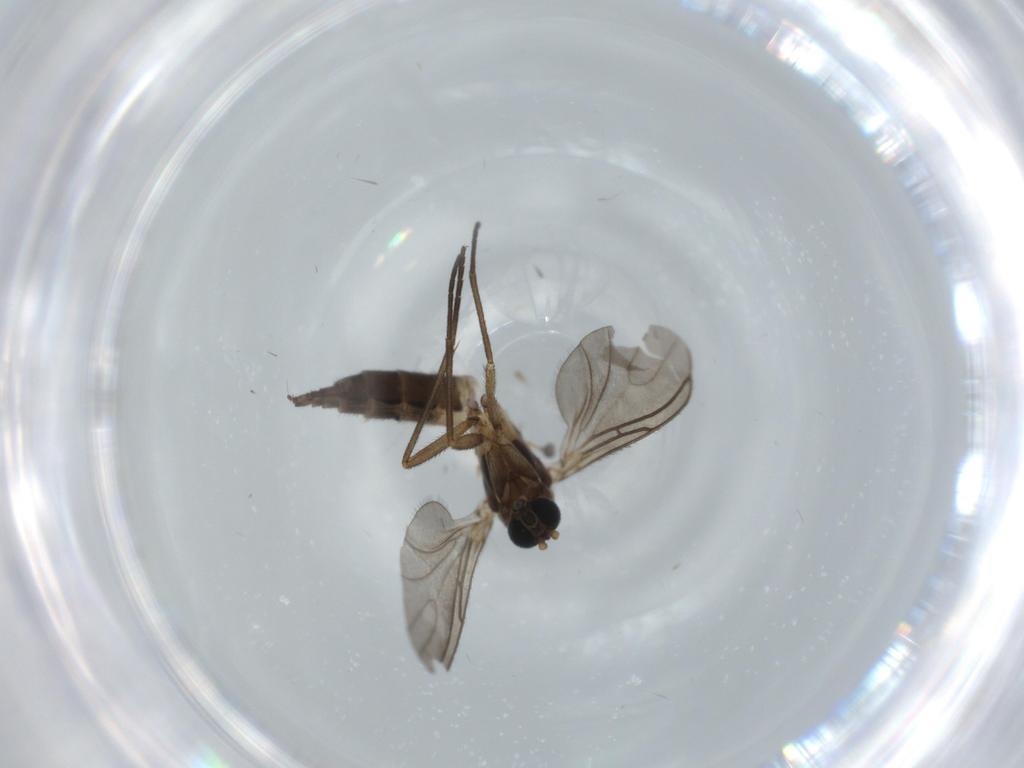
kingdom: Animalia
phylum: Arthropoda
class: Insecta
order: Diptera
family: Sciaridae
